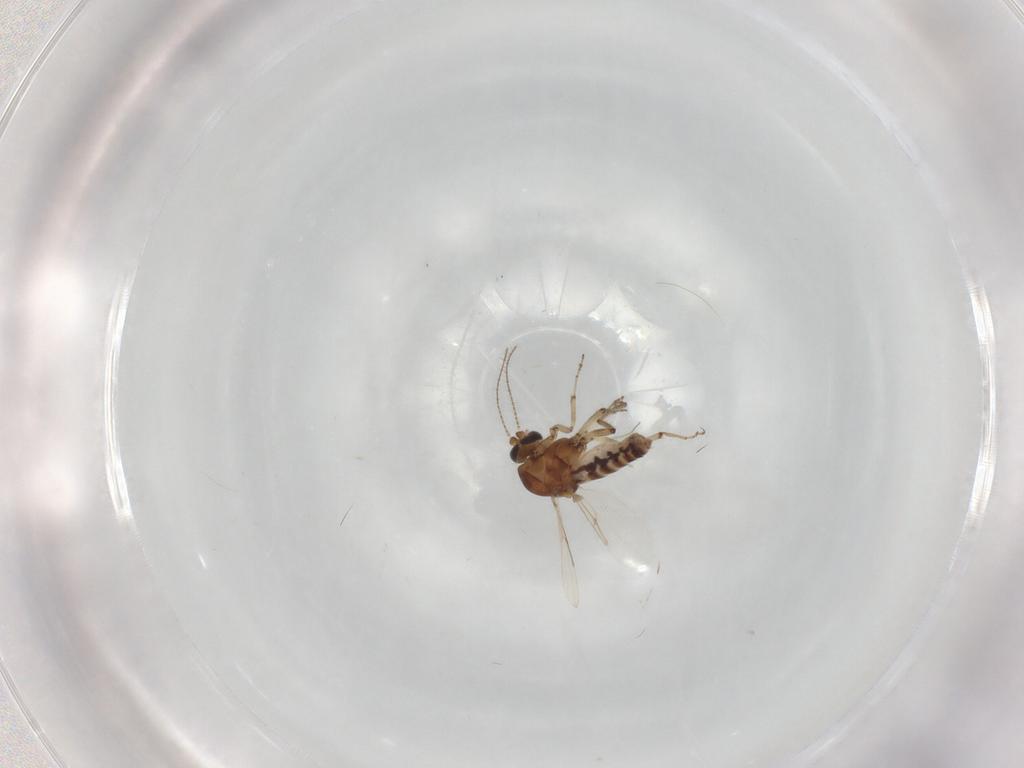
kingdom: Animalia
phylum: Arthropoda
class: Insecta
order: Diptera
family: Ceratopogonidae
